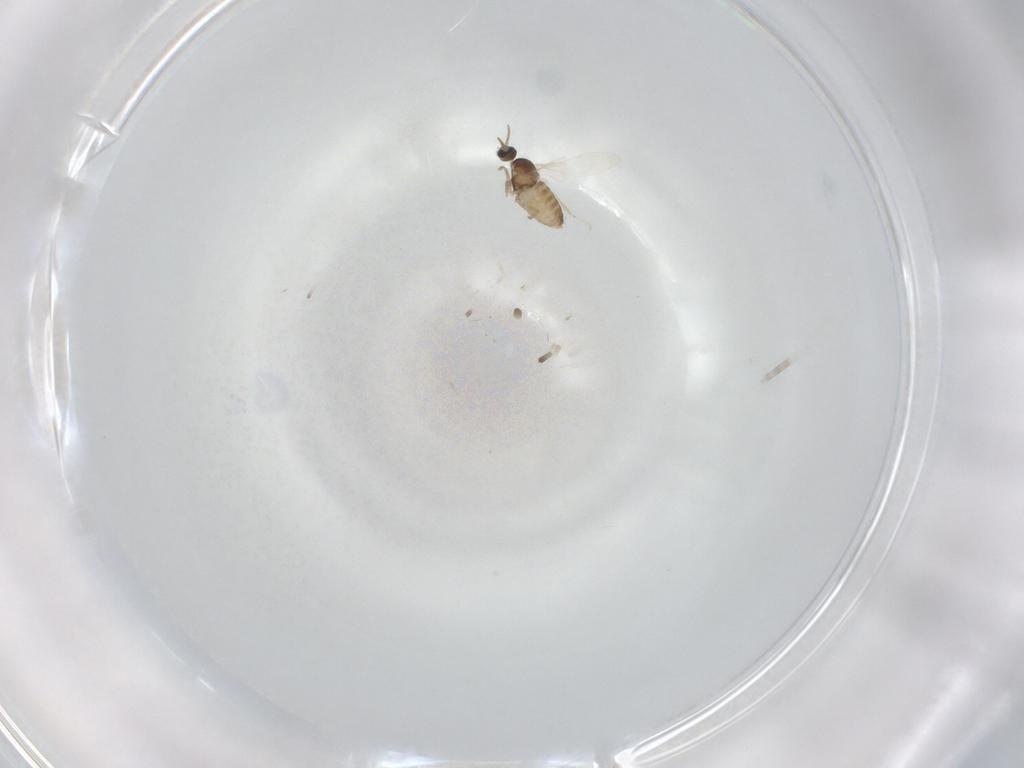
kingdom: Animalia
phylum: Arthropoda
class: Insecta
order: Diptera
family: Cecidomyiidae
